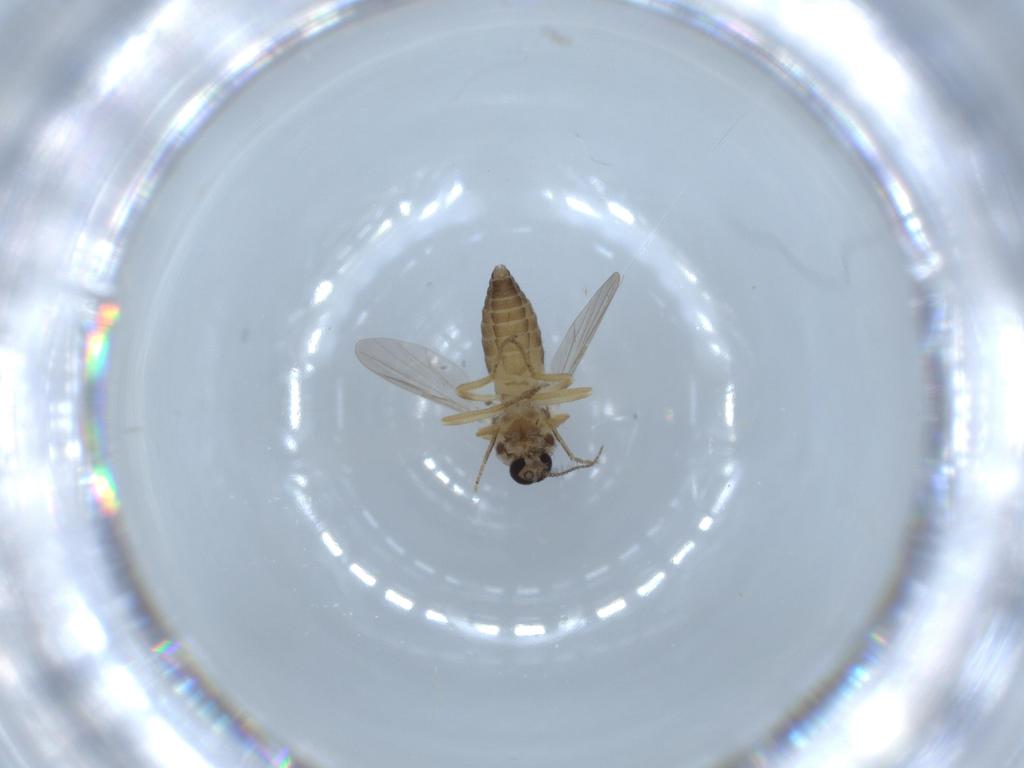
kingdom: Animalia
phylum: Arthropoda
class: Insecta
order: Diptera
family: Ceratopogonidae
